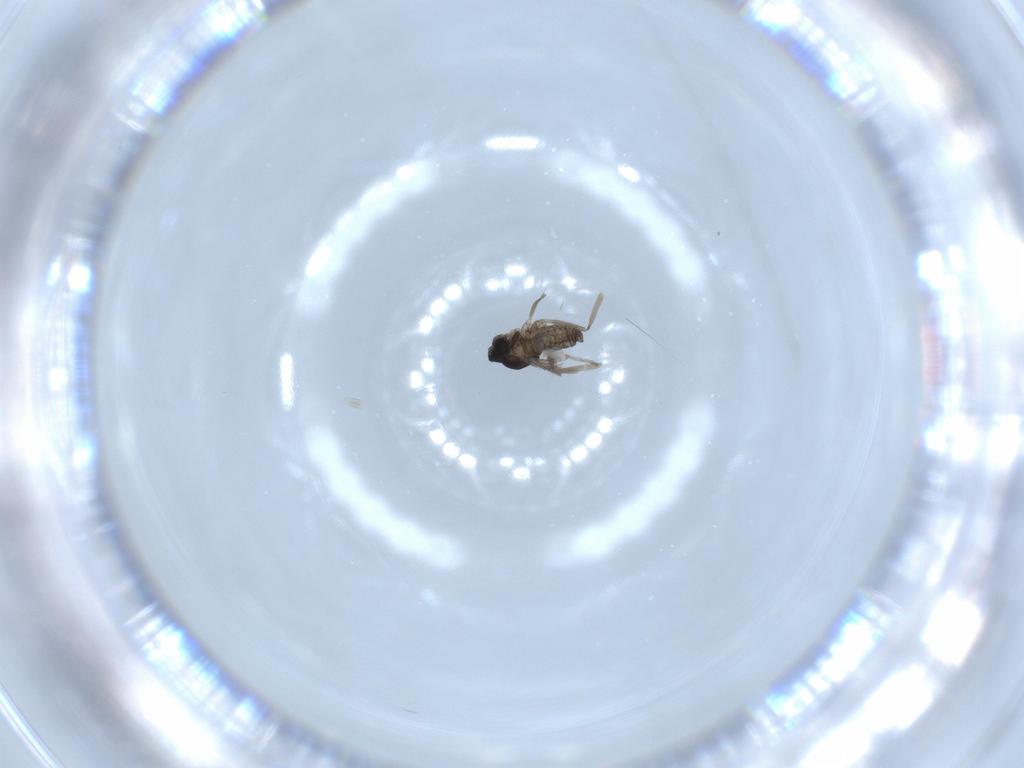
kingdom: Animalia
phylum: Arthropoda
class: Insecta
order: Diptera
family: Cecidomyiidae
